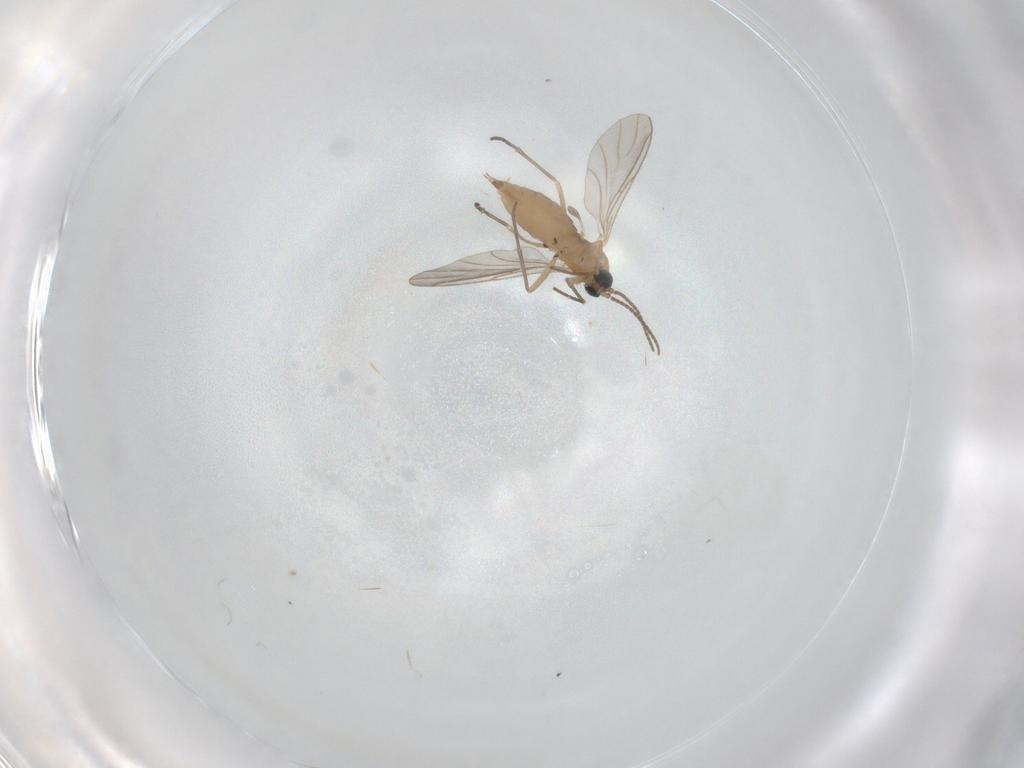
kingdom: Animalia
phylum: Arthropoda
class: Insecta
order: Diptera
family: Sciaridae
